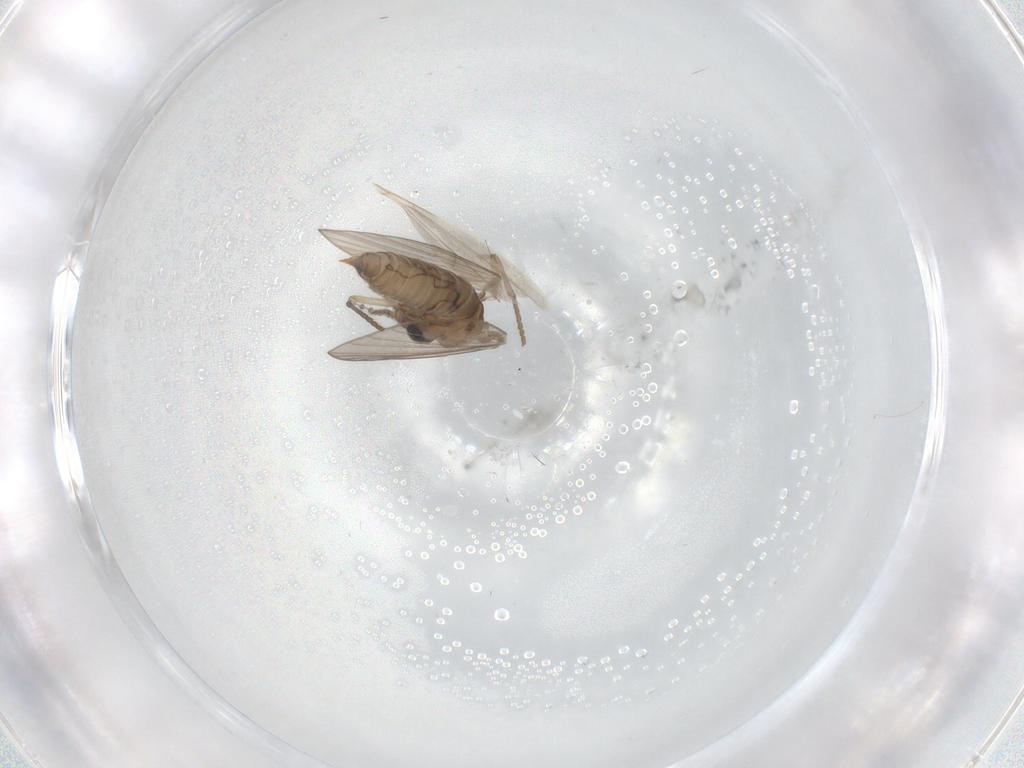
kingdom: Animalia
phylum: Arthropoda
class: Insecta
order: Diptera
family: Psychodidae
